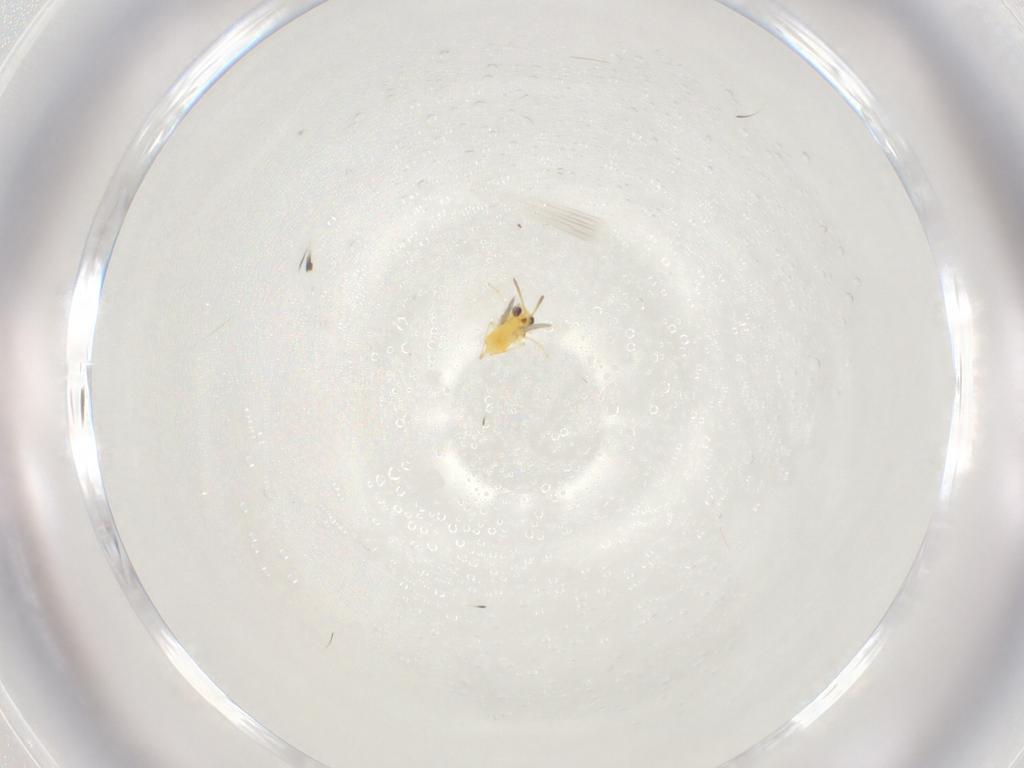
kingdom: Animalia
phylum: Arthropoda
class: Insecta
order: Hymenoptera
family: Aphelinidae
